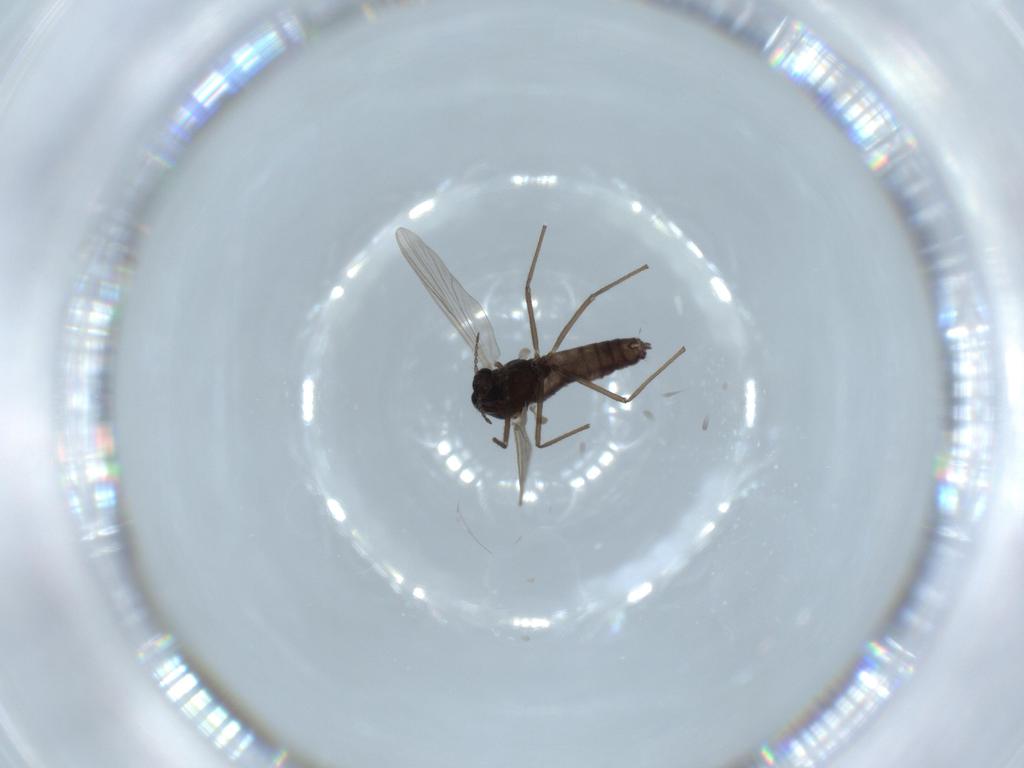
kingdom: Animalia
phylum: Arthropoda
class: Insecta
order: Diptera
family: Chironomidae
